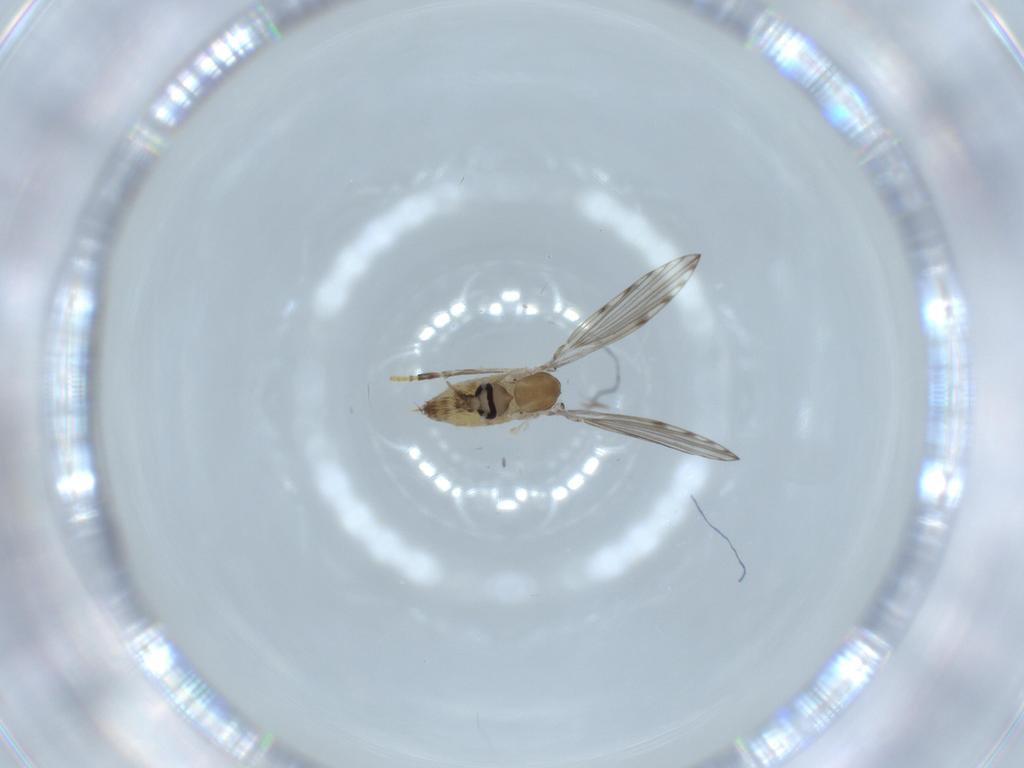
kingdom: Animalia
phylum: Arthropoda
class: Insecta
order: Diptera
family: Psychodidae
